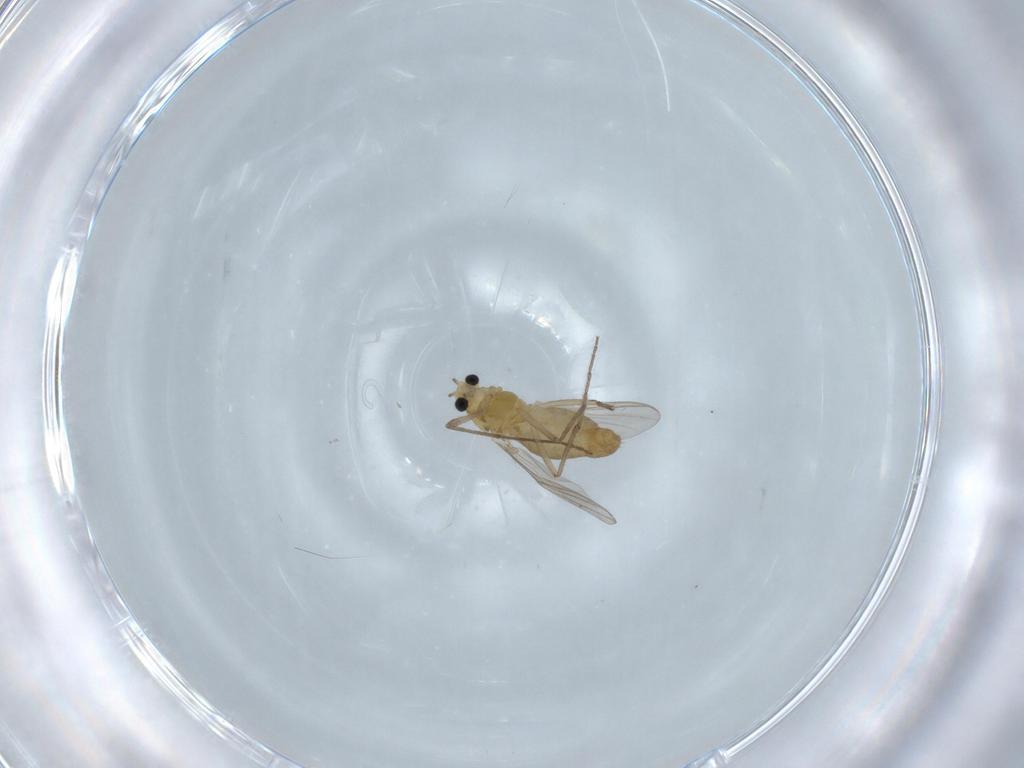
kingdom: Animalia
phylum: Arthropoda
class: Insecta
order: Diptera
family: Chironomidae
